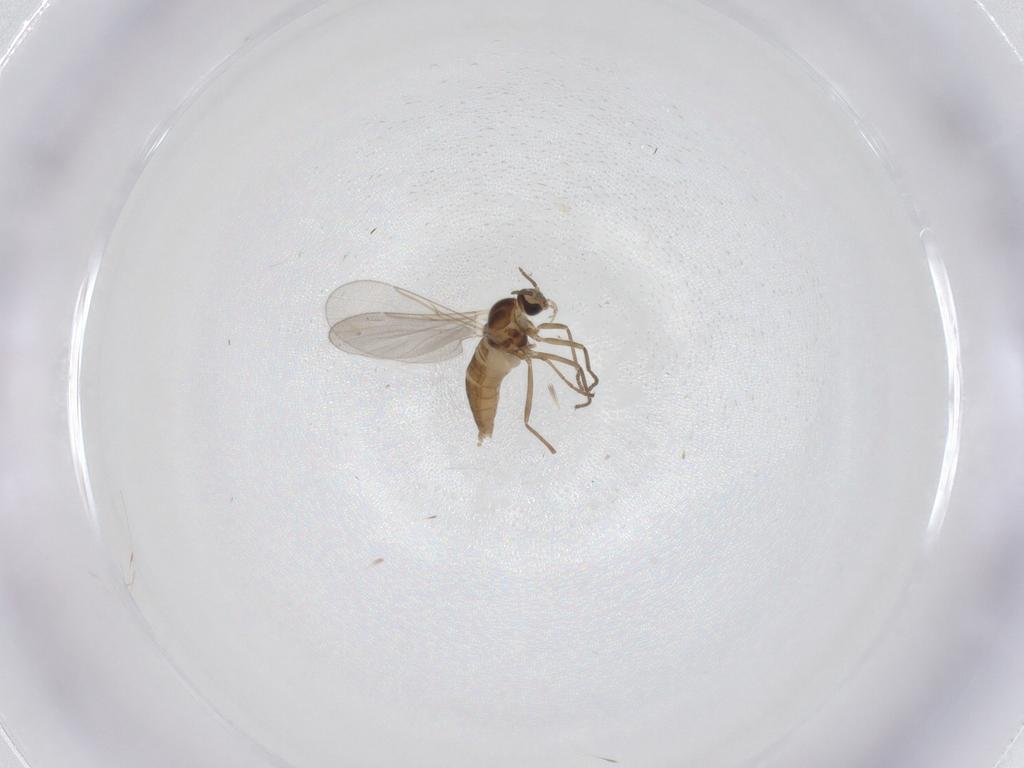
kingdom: Animalia
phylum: Arthropoda
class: Insecta
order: Diptera
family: Cecidomyiidae
